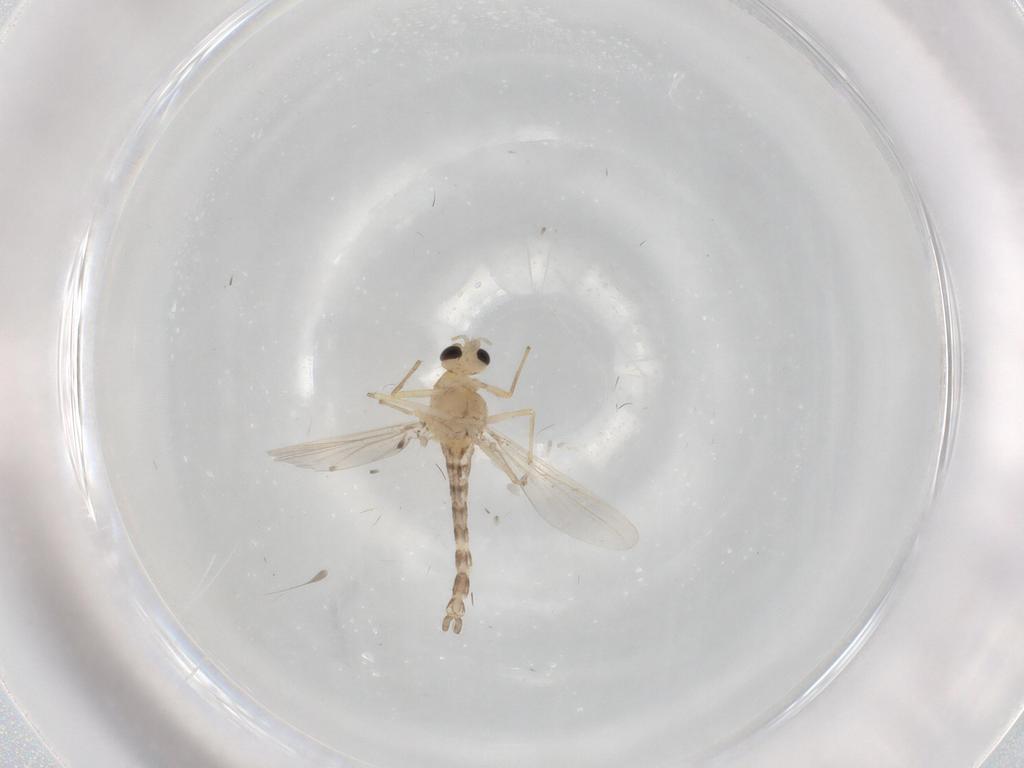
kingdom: Animalia
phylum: Arthropoda
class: Insecta
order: Diptera
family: Chironomidae
